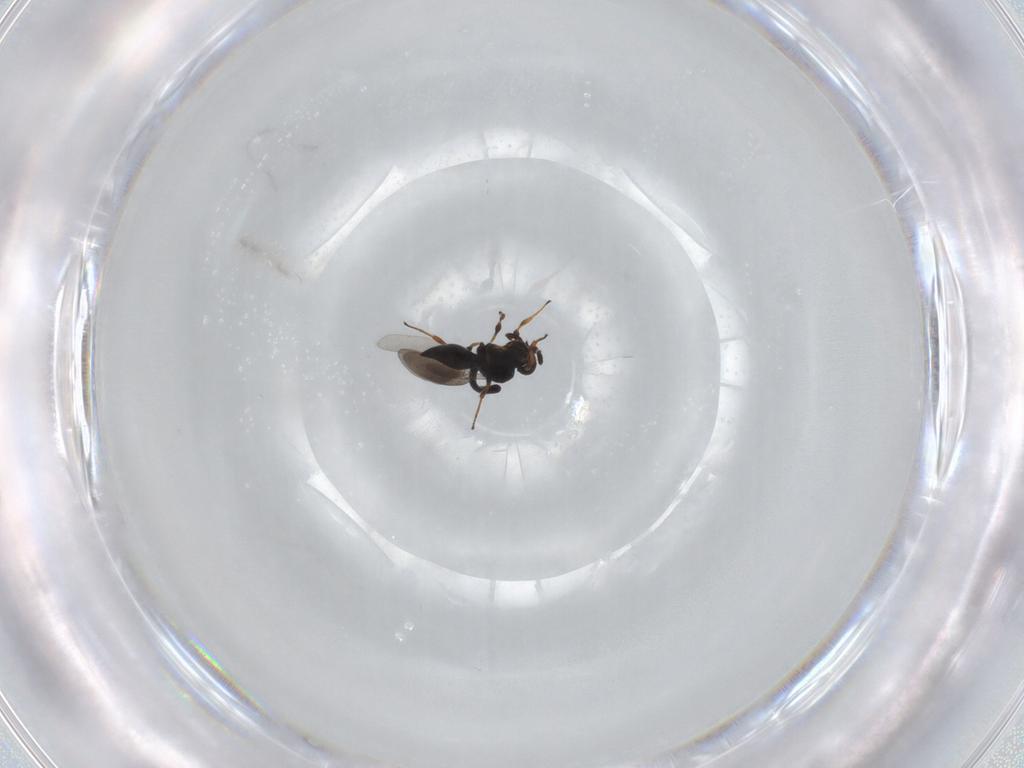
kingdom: Animalia
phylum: Arthropoda
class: Insecta
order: Hymenoptera
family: Platygastridae
